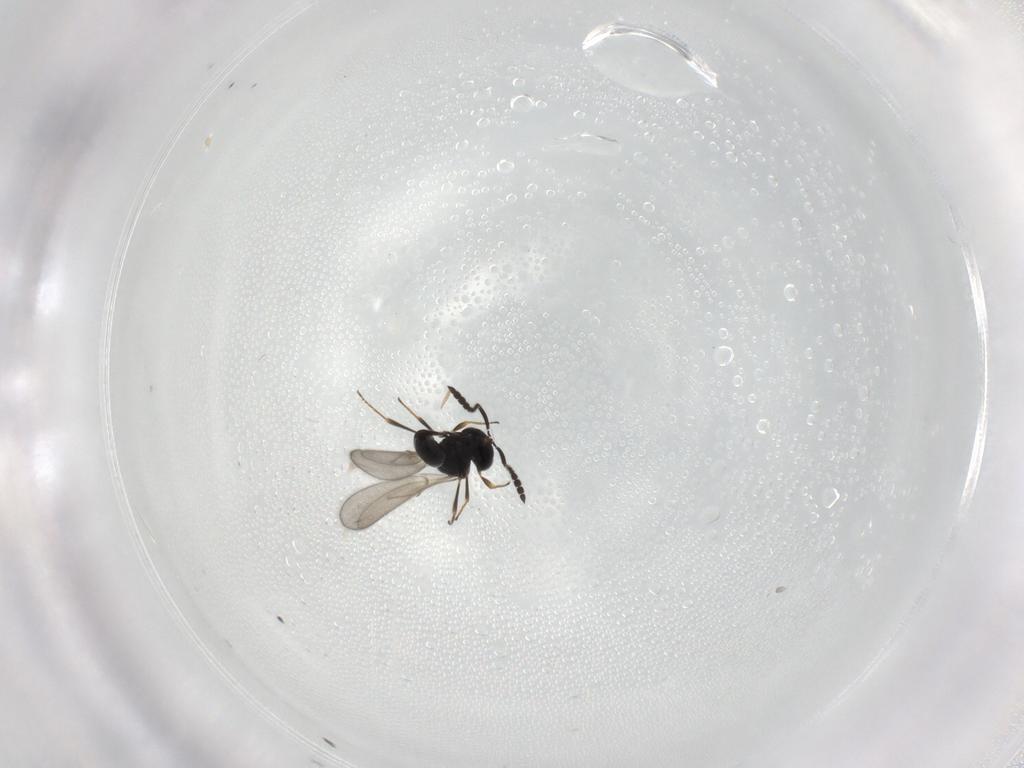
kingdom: Animalia
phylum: Arthropoda
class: Insecta
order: Hymenoptera
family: Scelionidae
